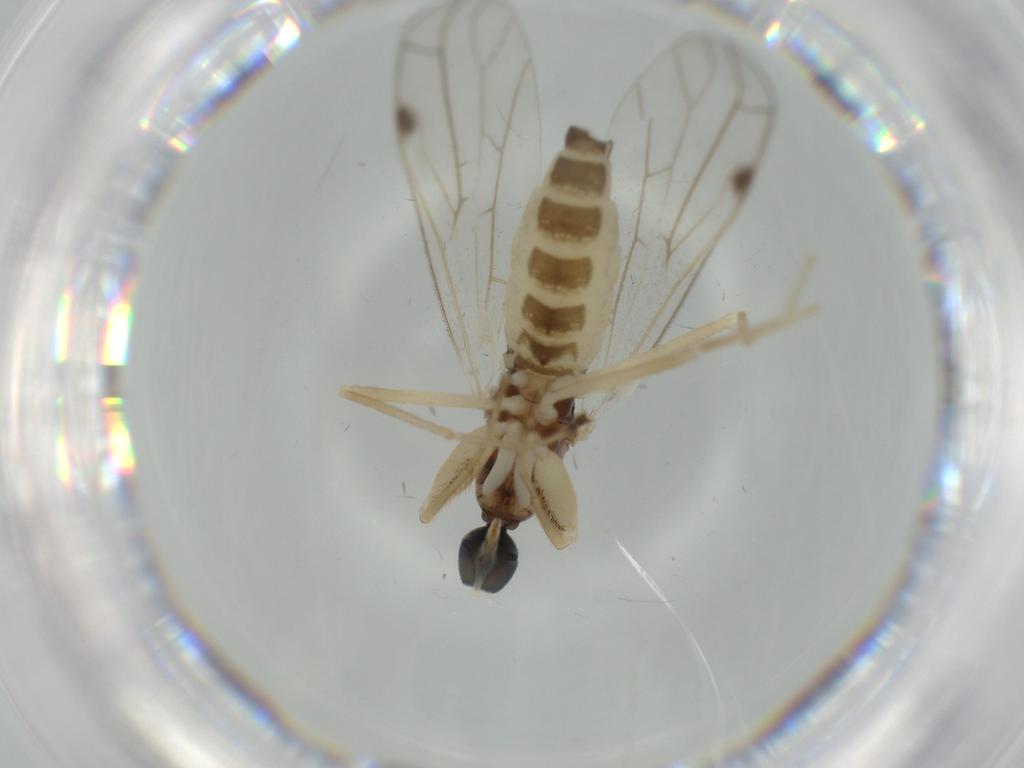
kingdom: Animalia
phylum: Arthropoda
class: Insecta
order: Diptera
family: Empididae
